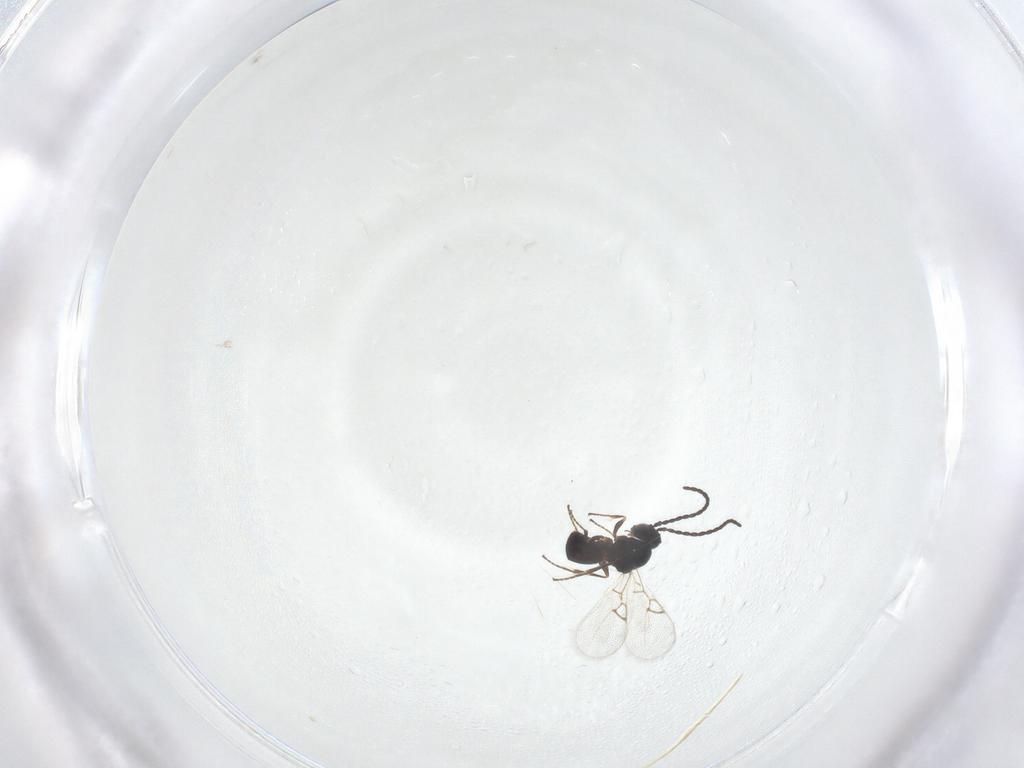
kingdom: Animalia
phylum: Arthropoda
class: Insecta
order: Hymenoptera
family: Figitidae
